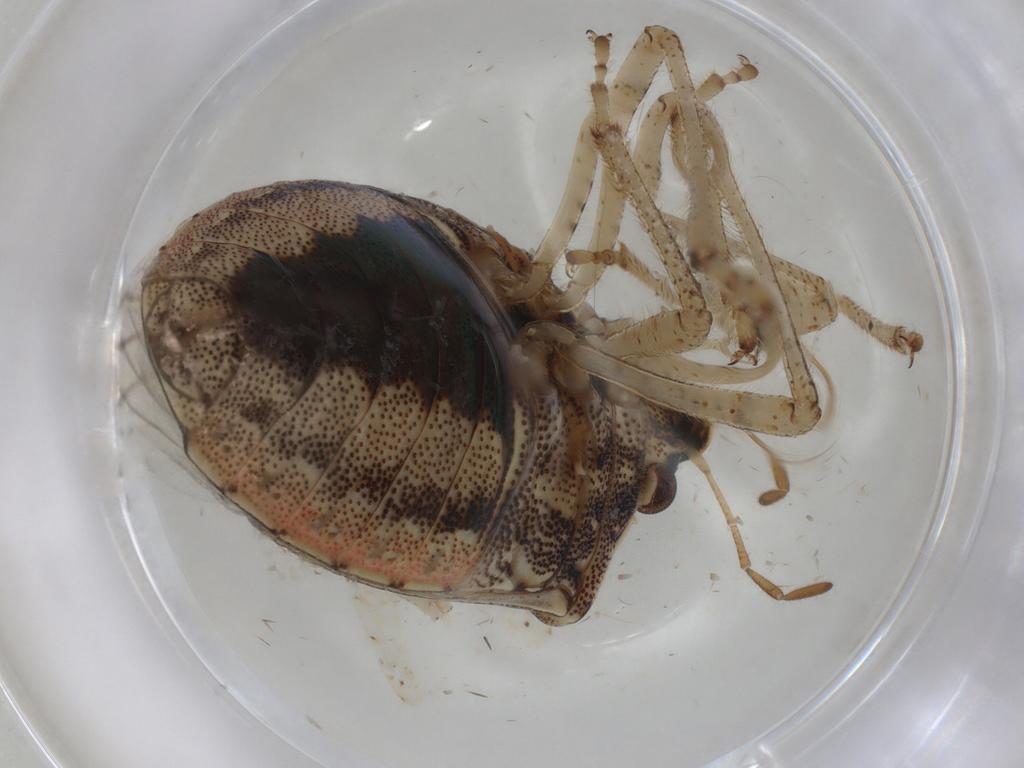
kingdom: Animalia
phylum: Arthropoda
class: Insecta
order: Hemiptera
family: Cicadellidae
